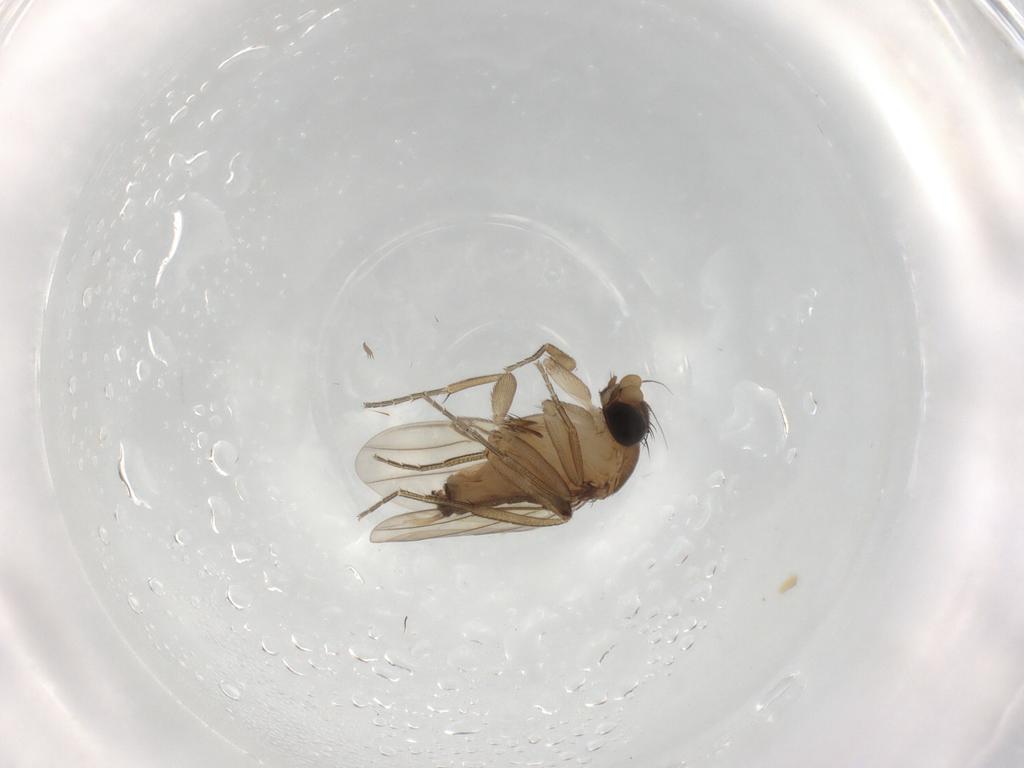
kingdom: Animalia
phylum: Arthropoda
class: Insecta
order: Diptera
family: Phoridae
